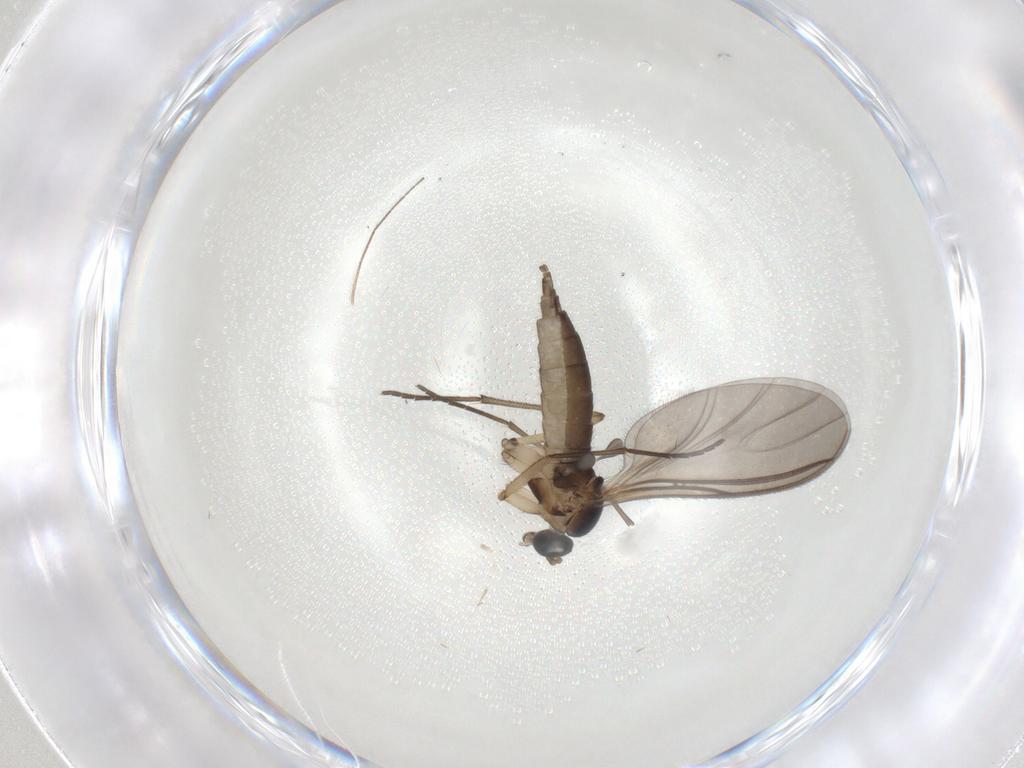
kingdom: Animalia
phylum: Arthropoda
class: Insecta
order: Diptera
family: Sciaridae
